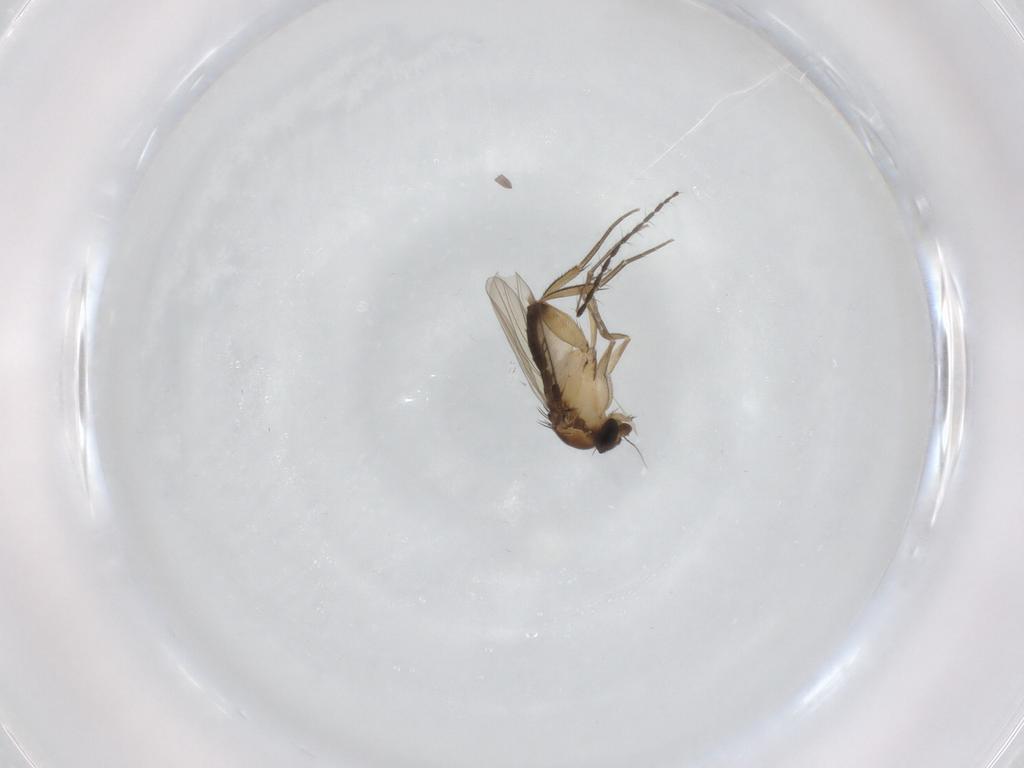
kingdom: Animalia
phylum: Arthropoda
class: Insecta
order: Diptera
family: Phoridae
